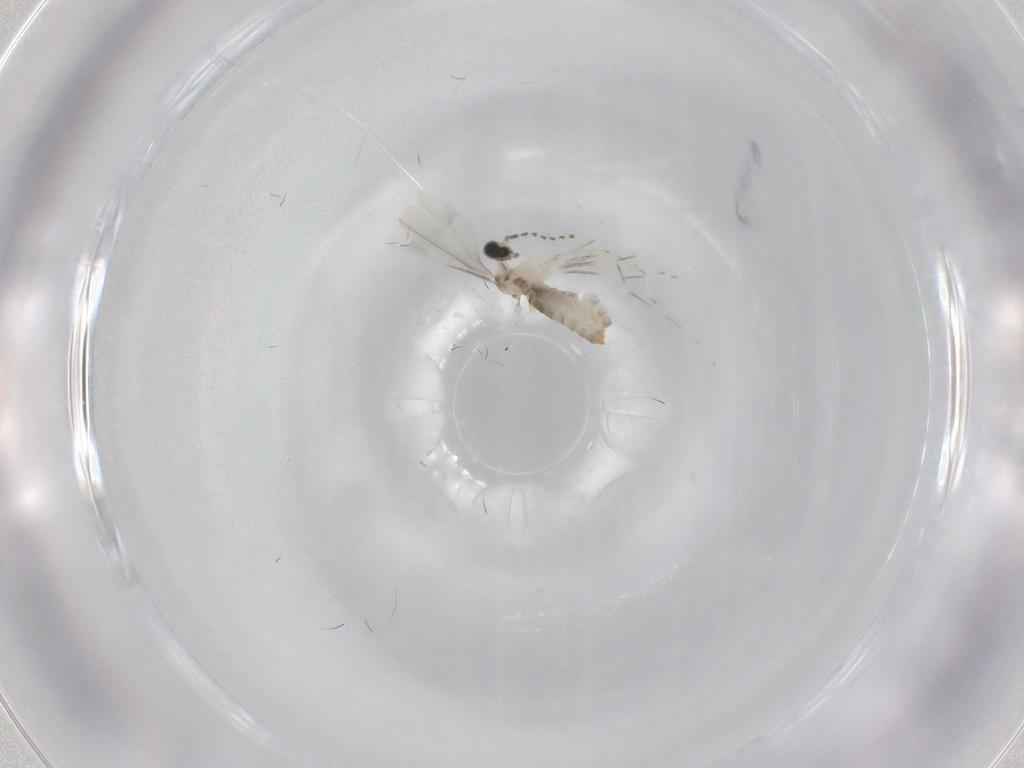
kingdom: Animalia
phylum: Arthropoda
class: Insecta
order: Diptera
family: Cecidomyiidae
